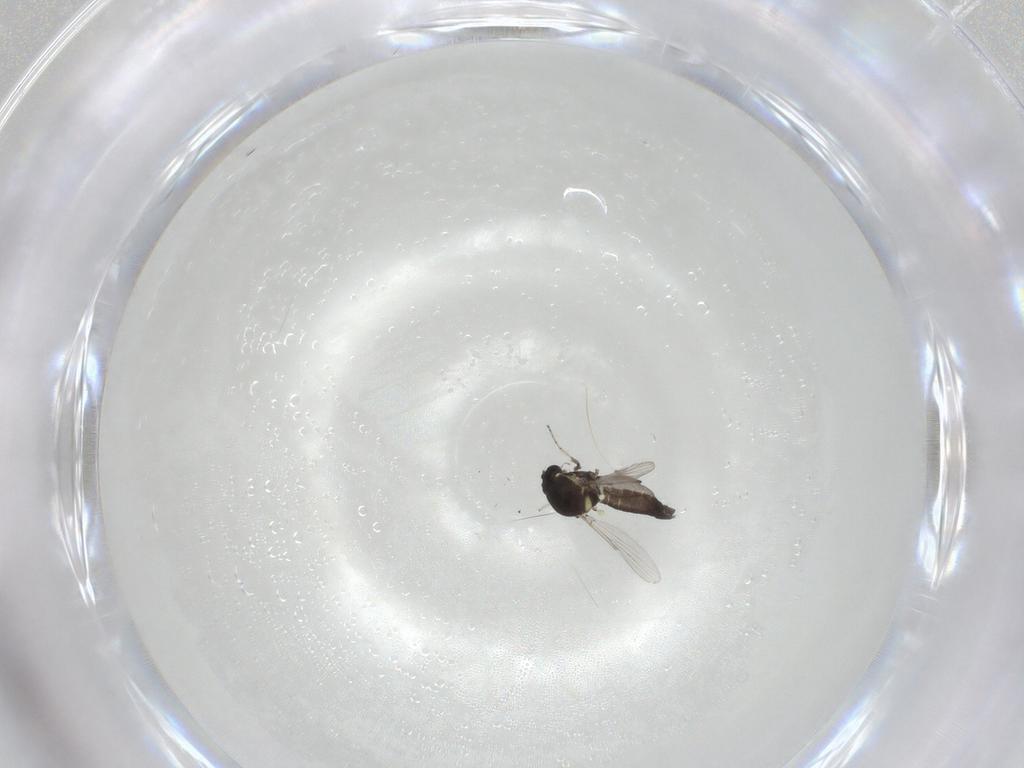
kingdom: Animalia
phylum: Arthropoda
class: Insecta
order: Diptera
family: Ceratopogonidae
